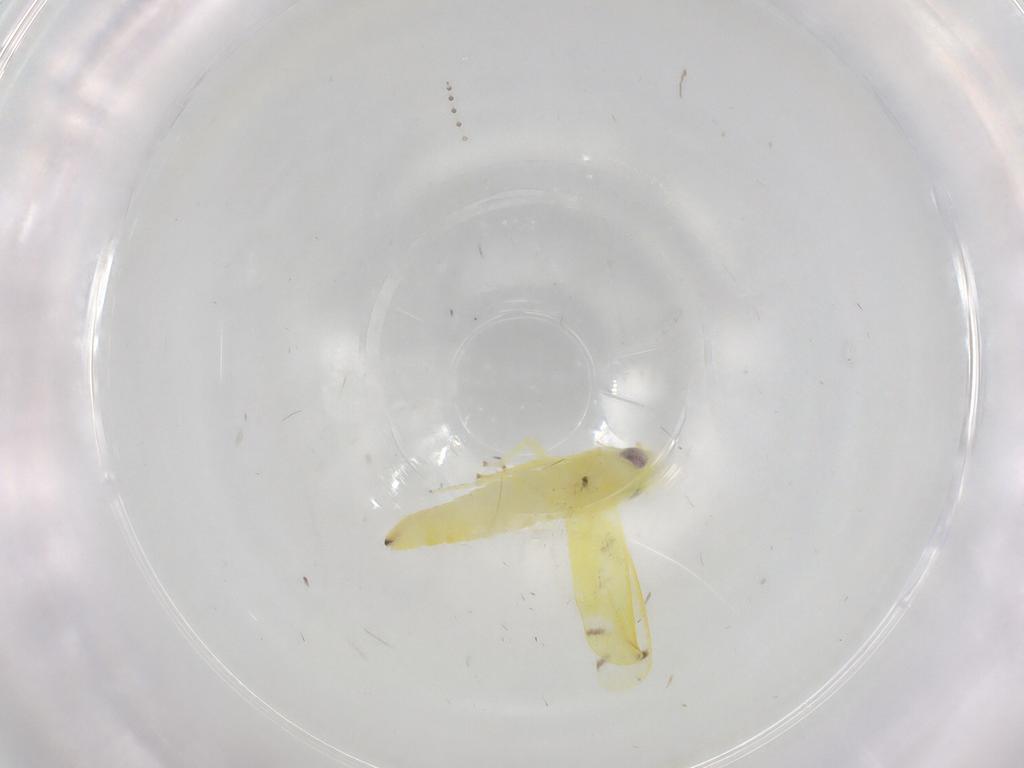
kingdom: Animalia
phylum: Arthropoda
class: Insecta
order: Hemiptera
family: Cicadellidae
